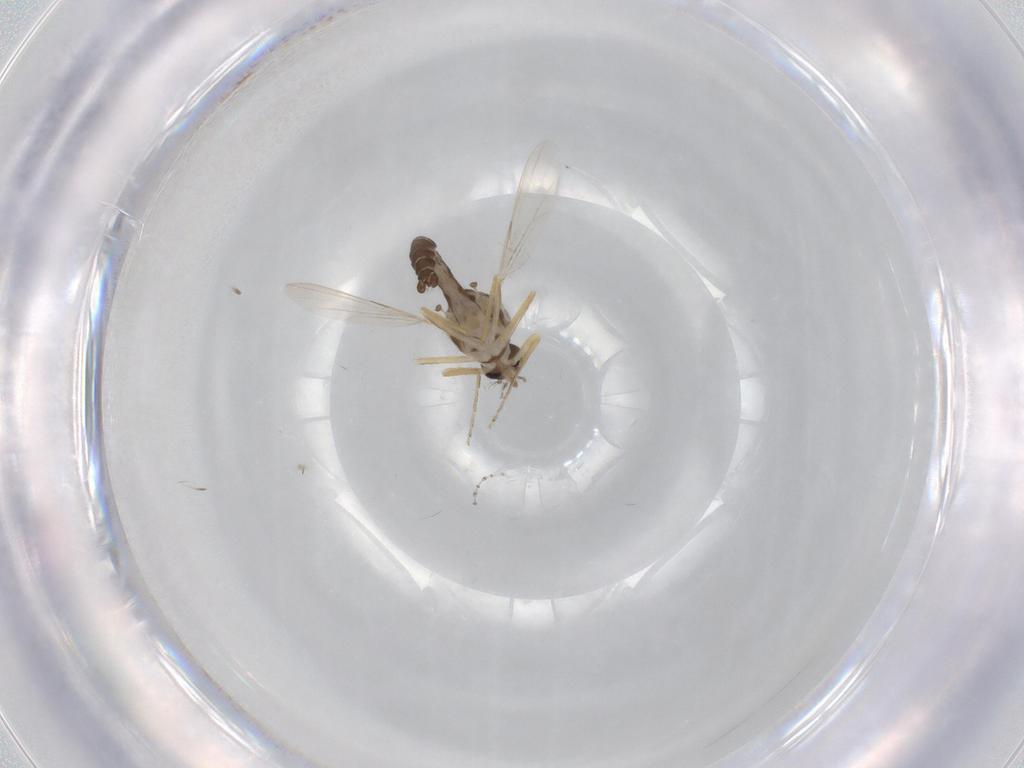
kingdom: Animalia
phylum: Arthropoda
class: Insecta
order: Diptera
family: Ceratopogonidae
